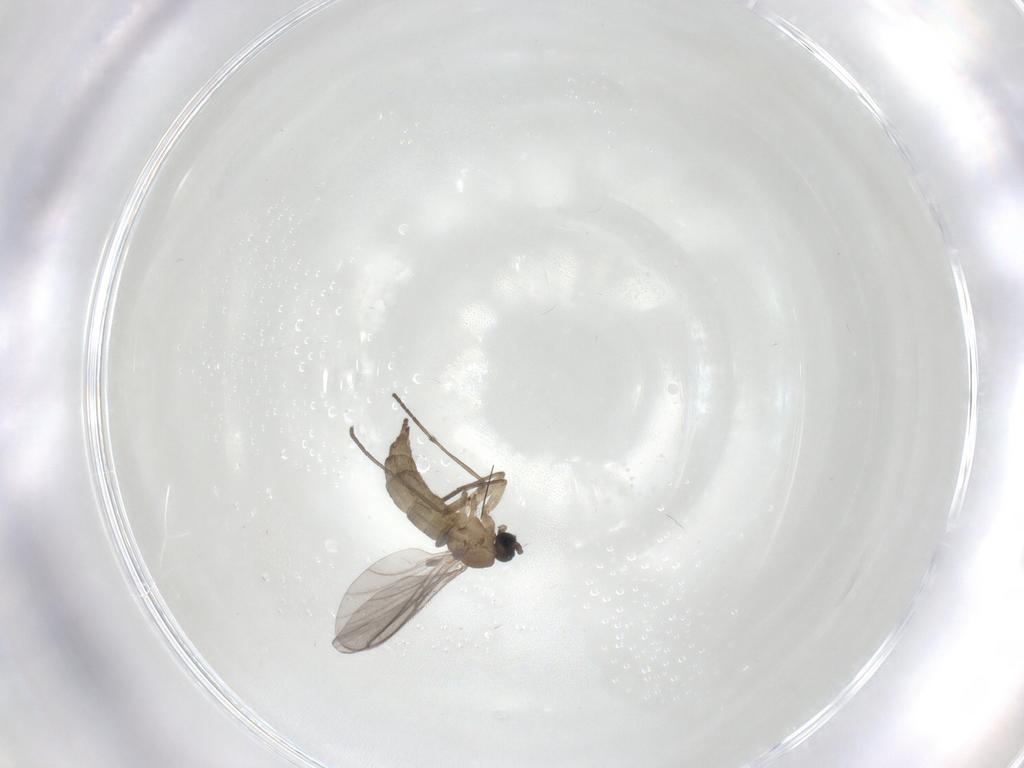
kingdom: Animalia
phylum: Arthropoda
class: Insecta
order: Diptera
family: Sciaridae
